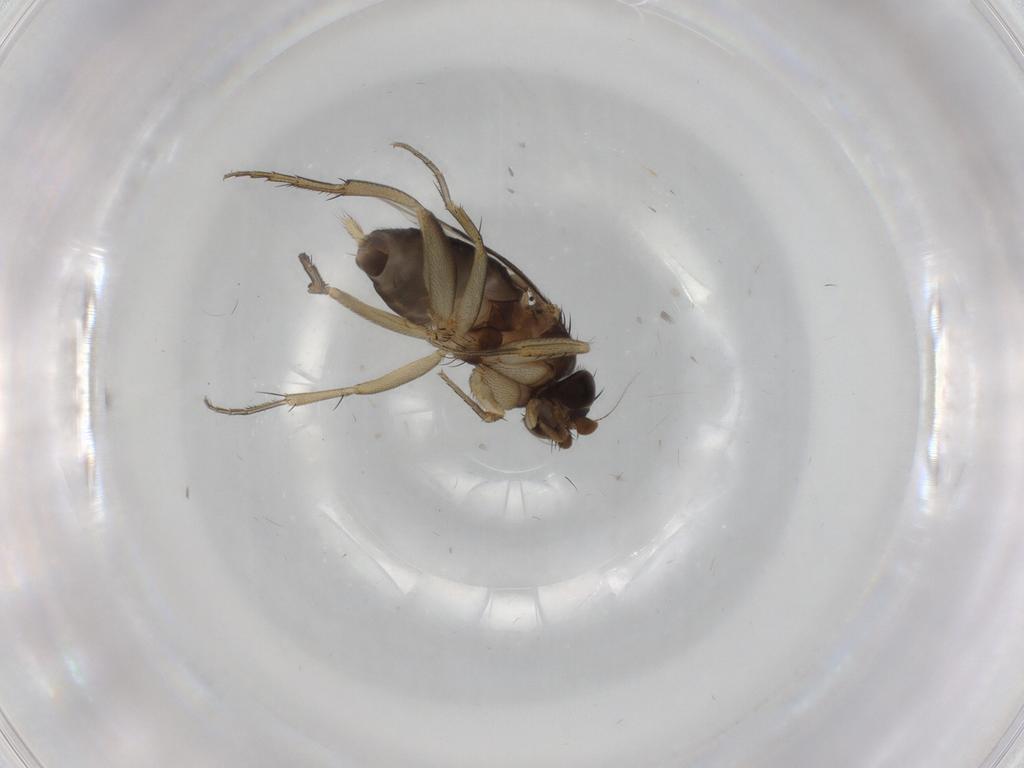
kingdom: Animalia
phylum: Arthropoda
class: Insecta
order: Diptera
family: Phoridae
